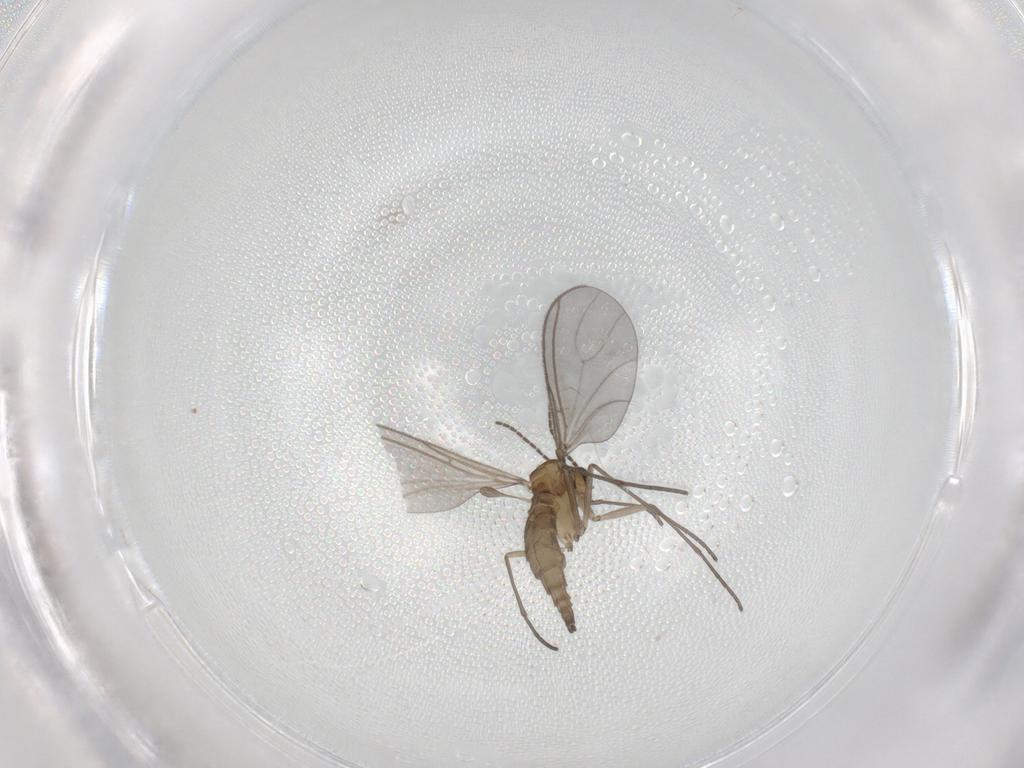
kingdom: Animalia
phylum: Arthropoda
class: Insecta
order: Diptera
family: Sciaridae
